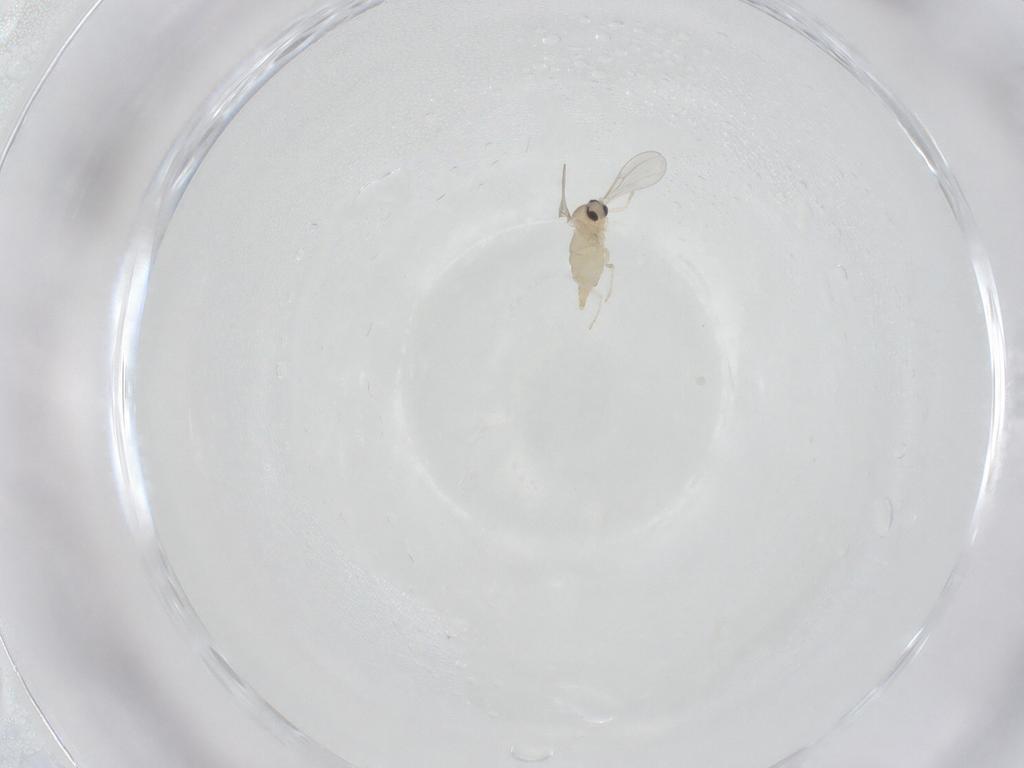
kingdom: Animalia
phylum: Arthropoda
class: Insecta
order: Diptera
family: Cecidomyiidae
